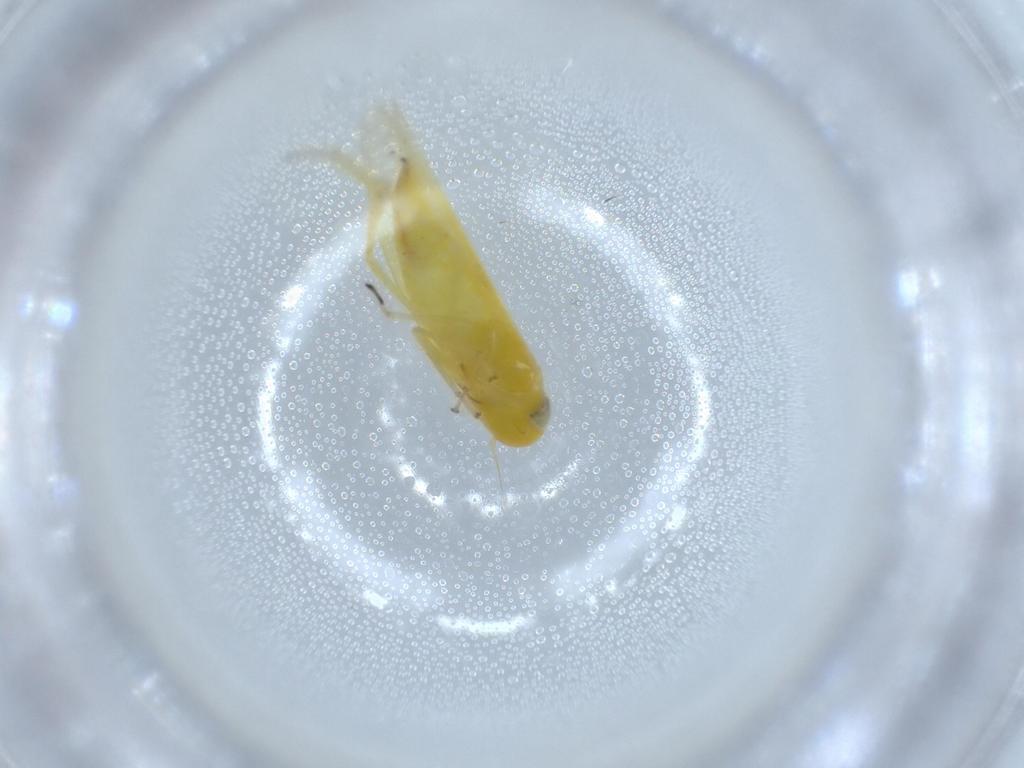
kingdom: Animalia
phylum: Arthropoda
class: Insecta
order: Hemiptera
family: Cicadellidae
